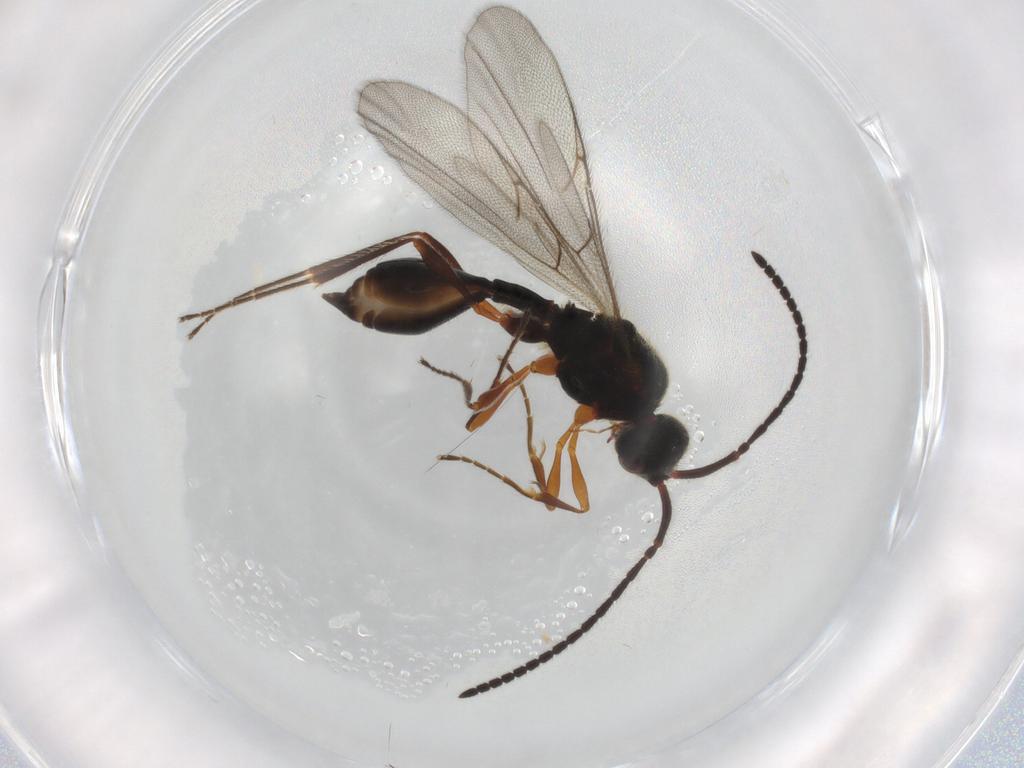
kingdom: Animalia
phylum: Arthropoda
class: Insecta
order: Hymenoptera
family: Diapriidae
